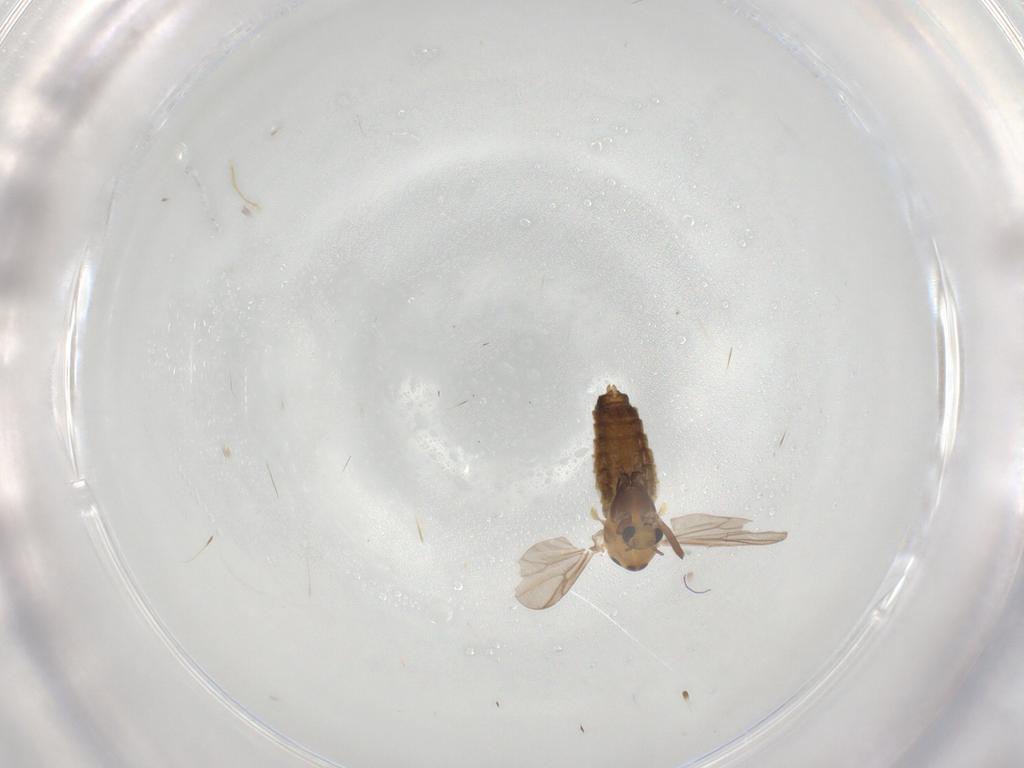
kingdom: Animalia
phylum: Arthropoda
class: Insecta
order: Diptera
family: Chironomidae
